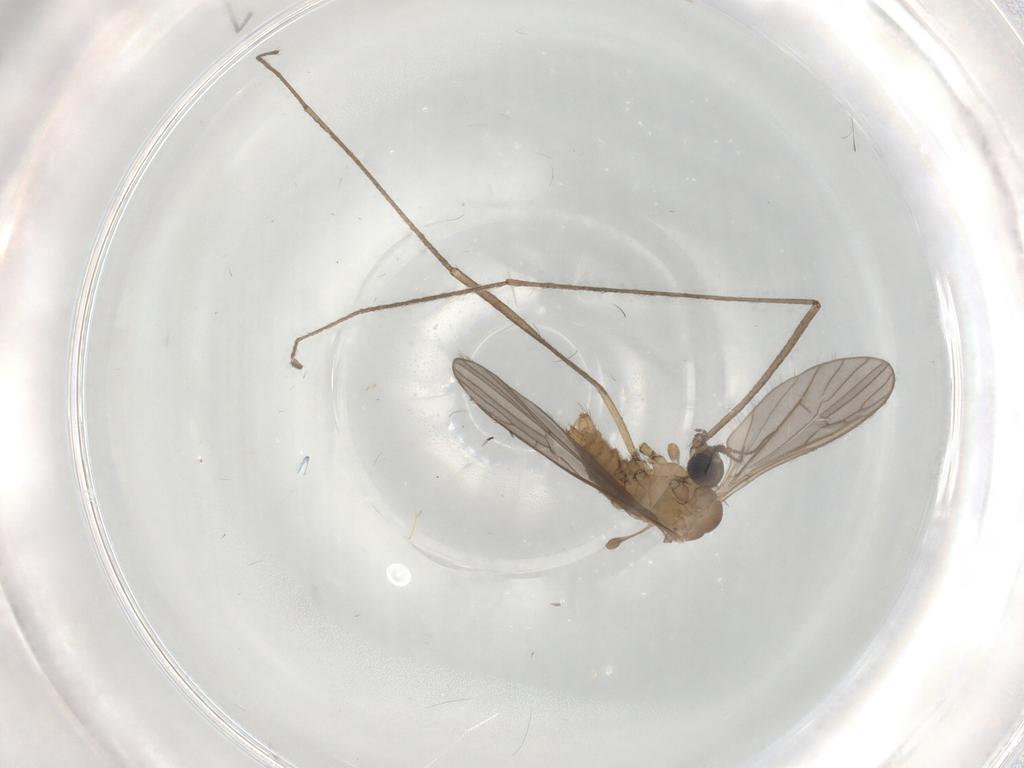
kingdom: Animalia
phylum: Arthropoda
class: Insecta
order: Diptera
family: Limoniidae
